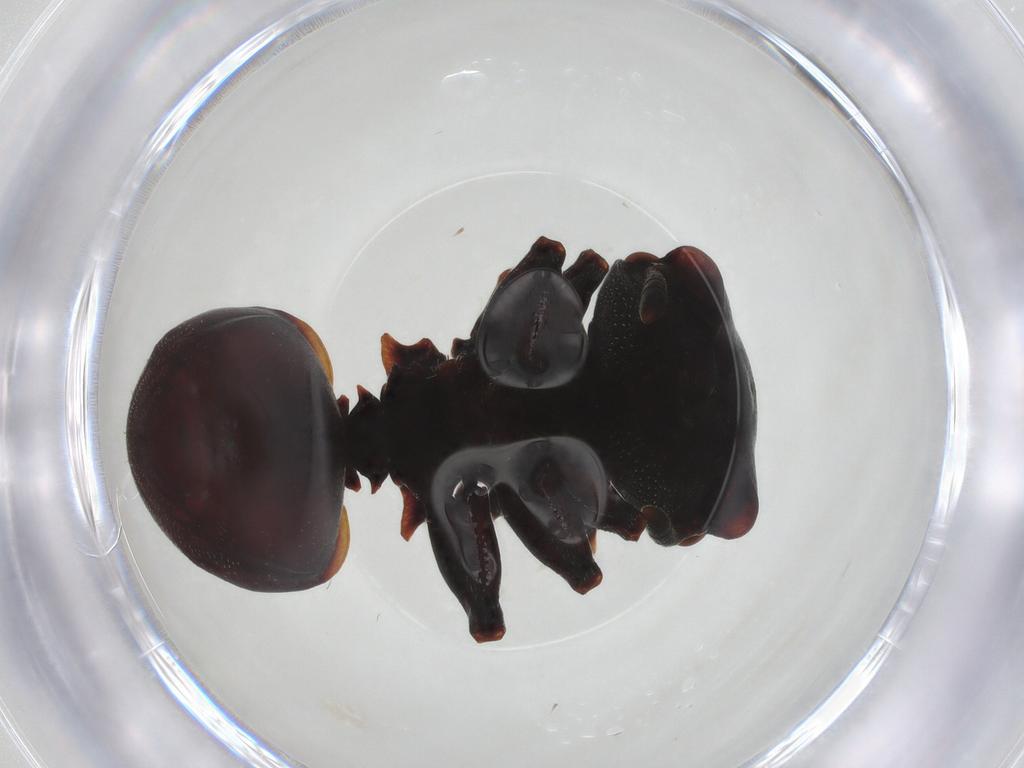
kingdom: Animalia
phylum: Arthropoda
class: Insecta
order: Hymenoptera
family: Formicidae
